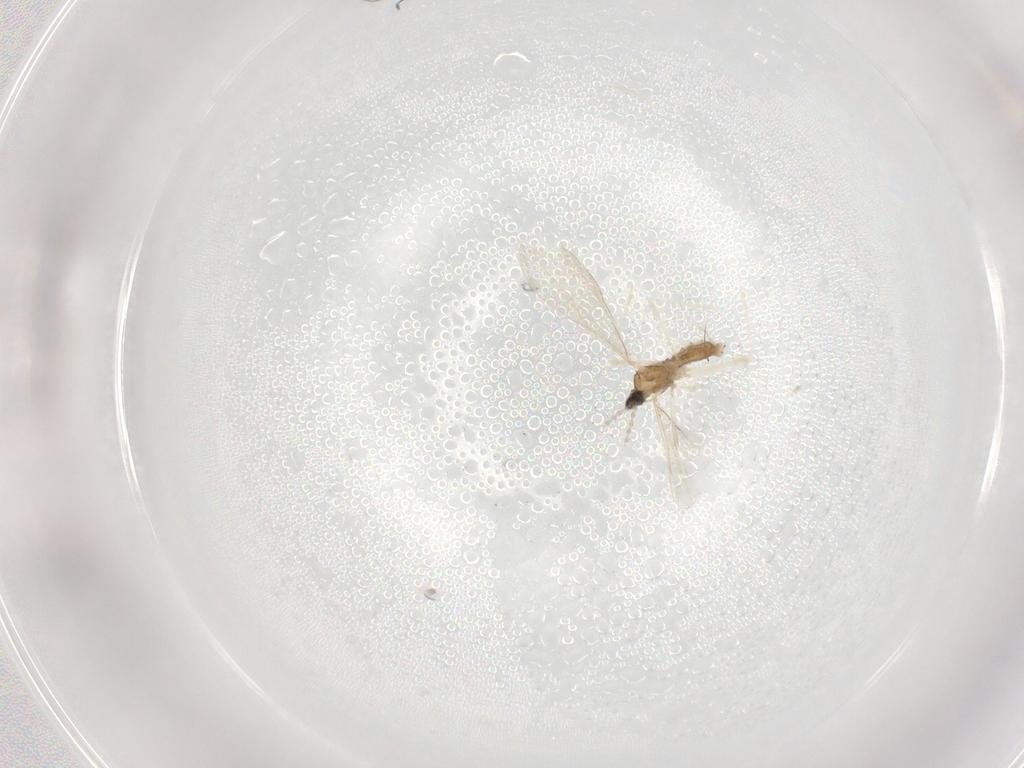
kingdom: Animalia
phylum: Arthropoda
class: Insecta
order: Diptera
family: Cecidomyiidae
